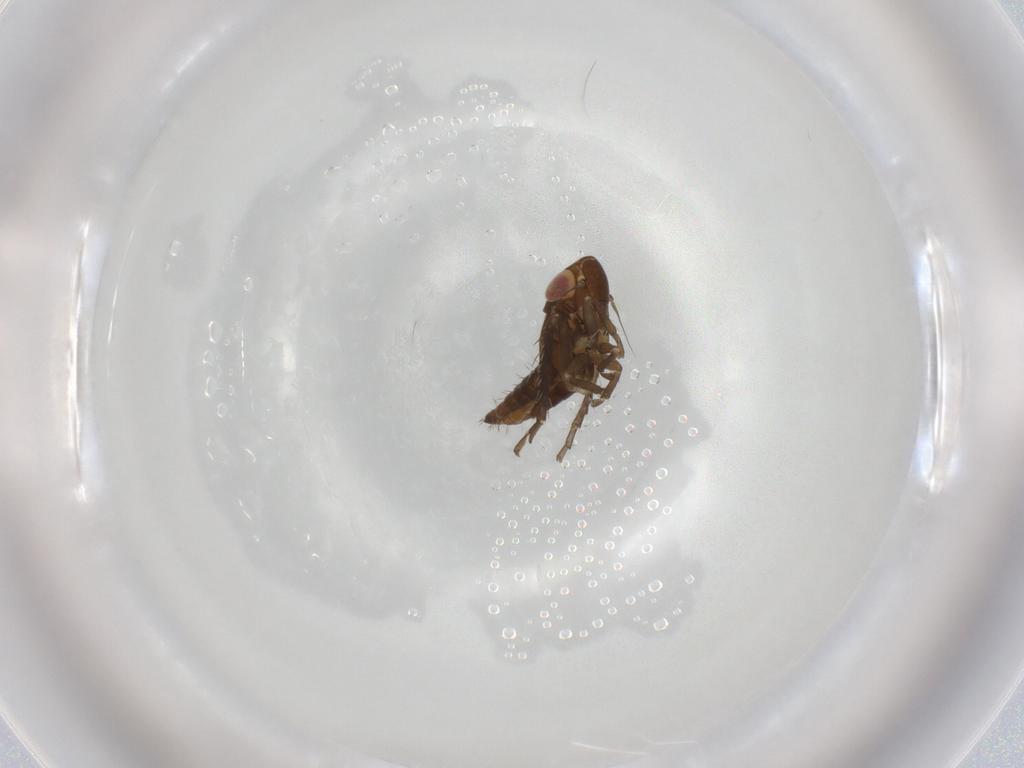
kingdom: Animalia
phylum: Arthropoda
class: Insecta
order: Hemiptera
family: Cicadellidae
